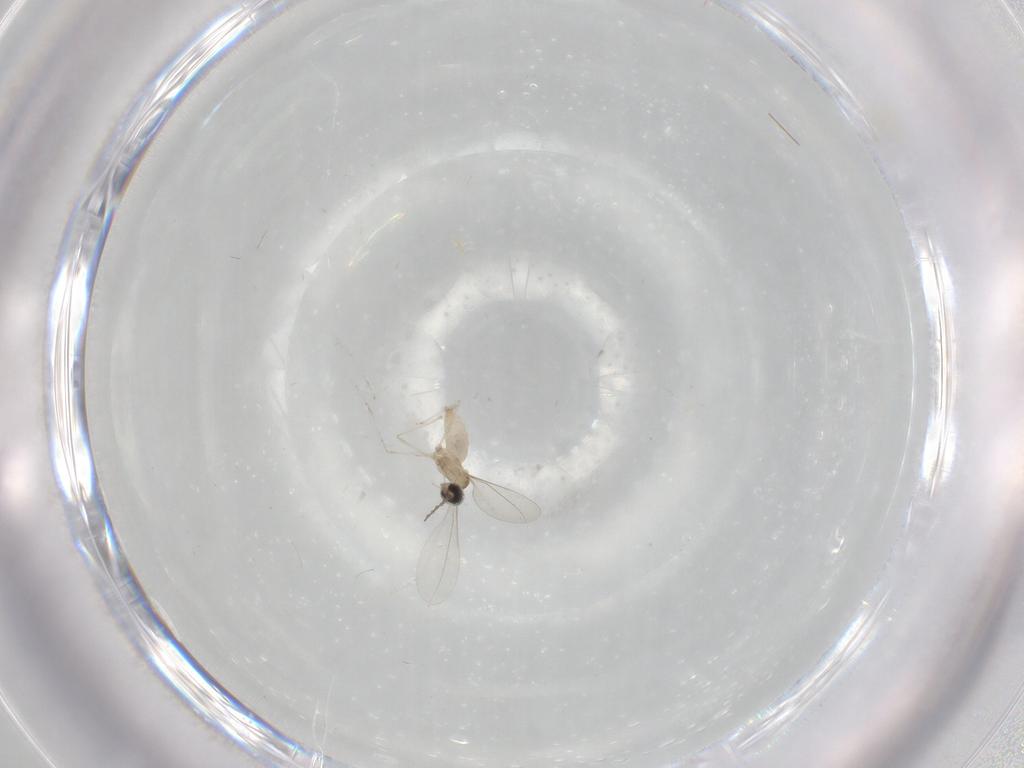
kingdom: Animalia
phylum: Arthropoda
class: Insecta
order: Diptera
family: Cecidomyiidae
